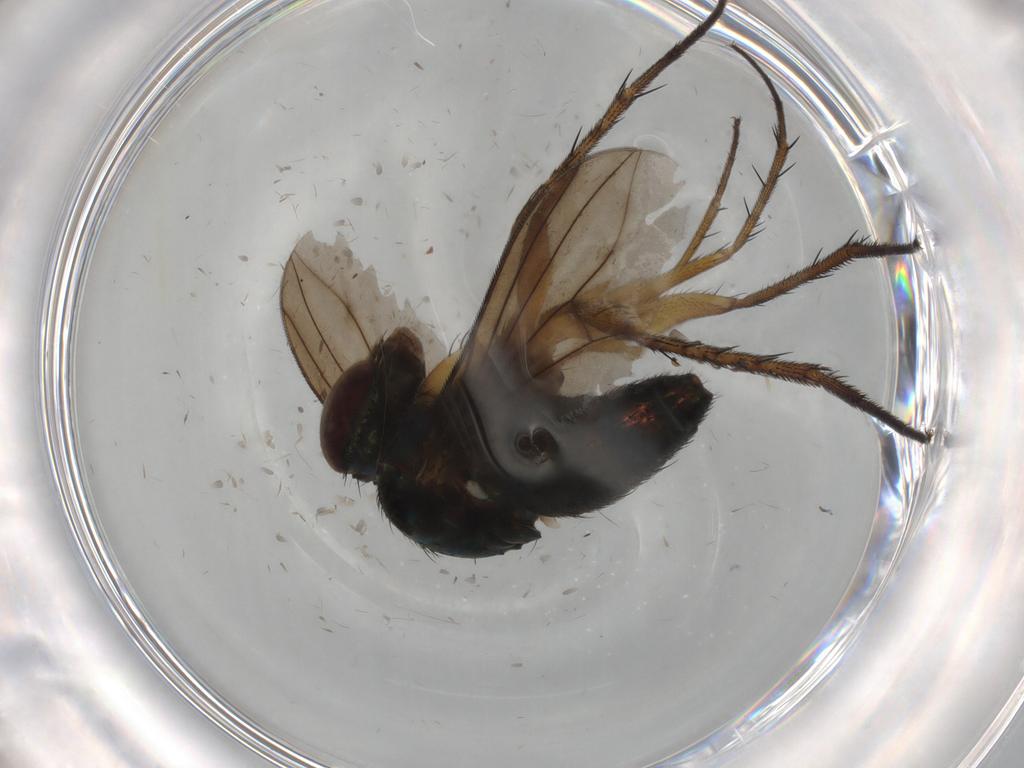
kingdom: Animalia
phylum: Arthropoda
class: Insecta
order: Diptera
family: Dolichopodidae
